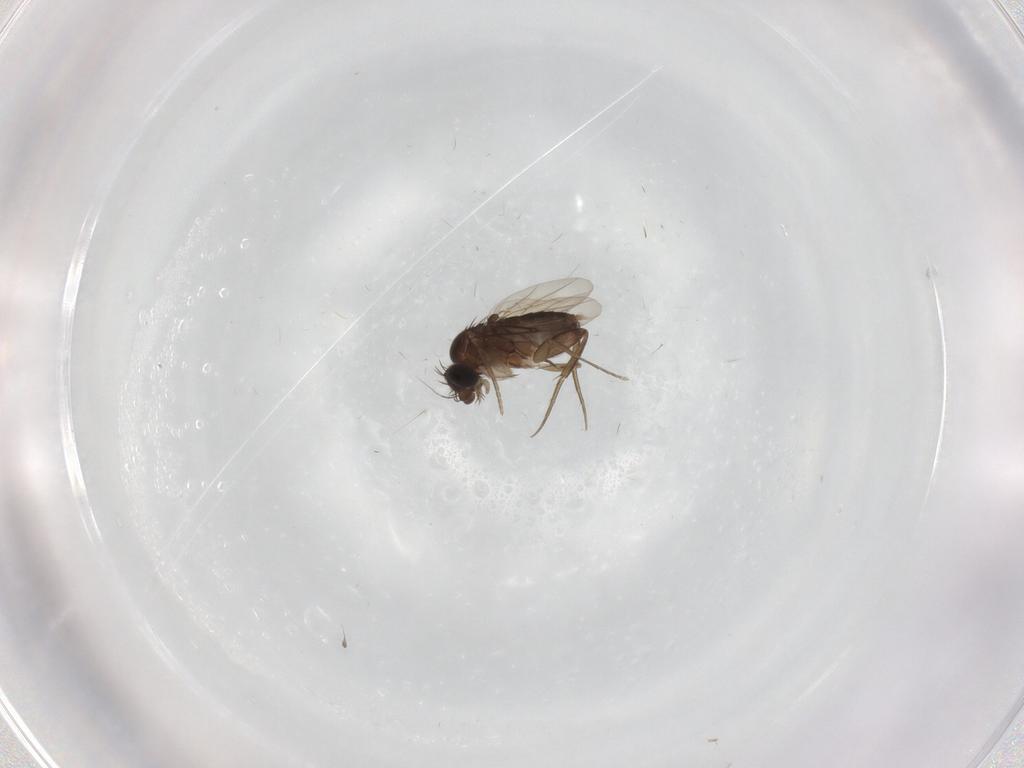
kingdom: Animalia
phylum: Arthropoda
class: Insecta
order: Diptera
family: Phoridae
